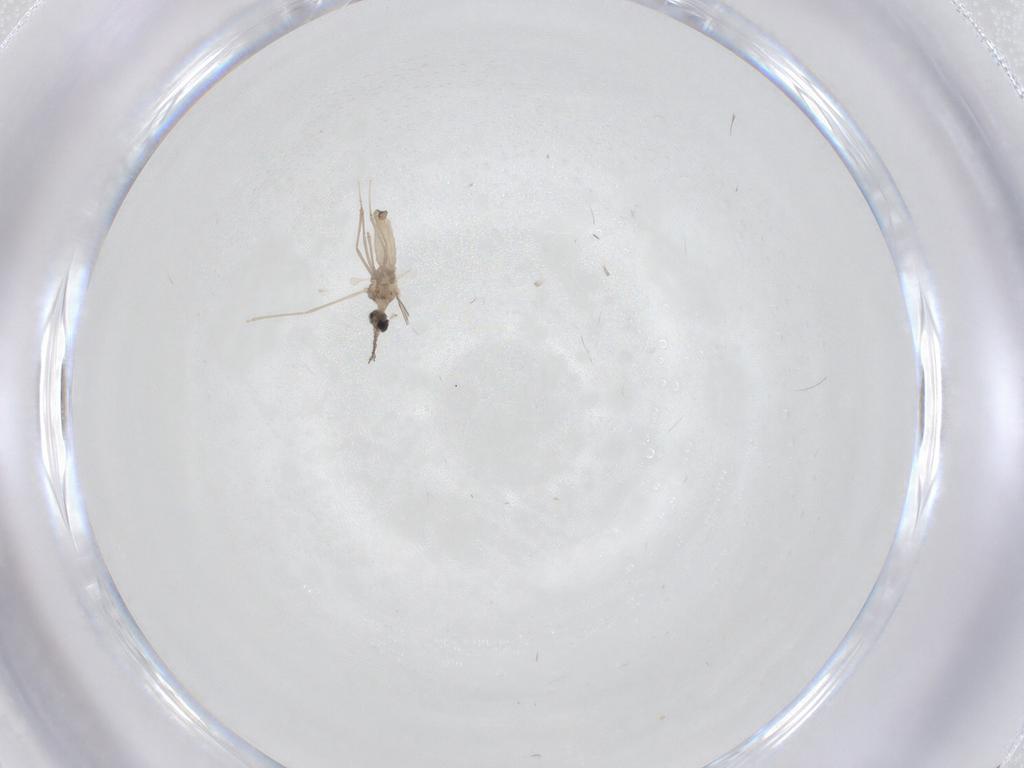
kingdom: Animalia
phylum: Arthropoda
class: Insecta
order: Diptera
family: Cecidomyiidae
